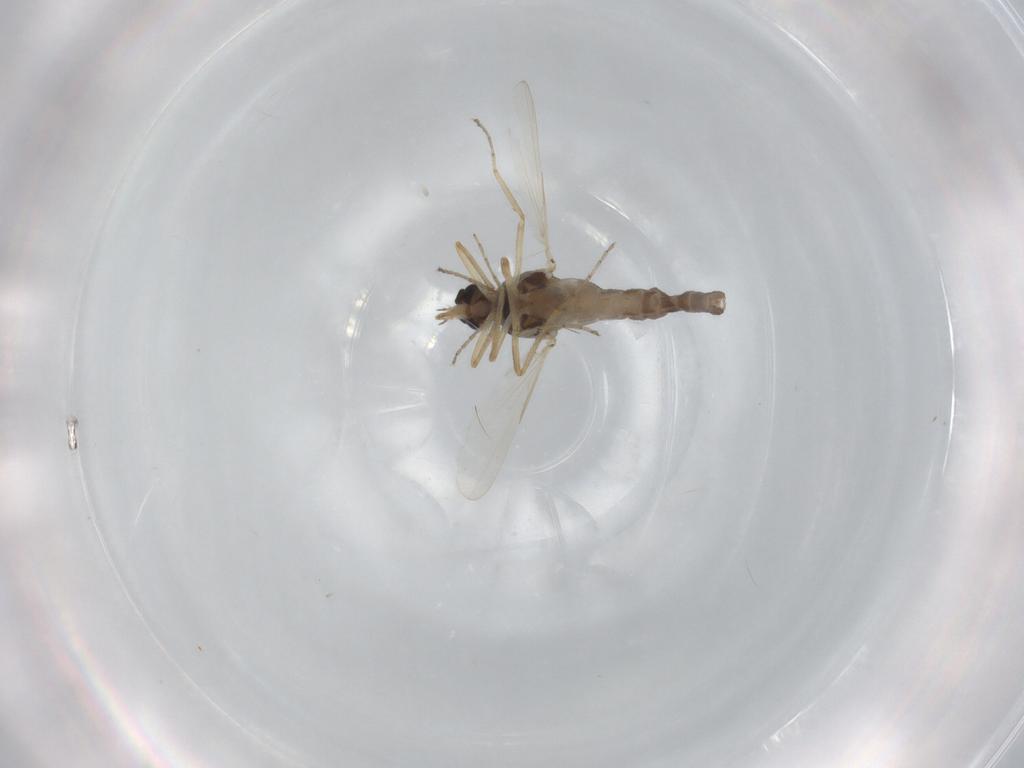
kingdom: Animalia
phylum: Arthropoda
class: Insecta
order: Diptera
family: Ceratopogonidae
